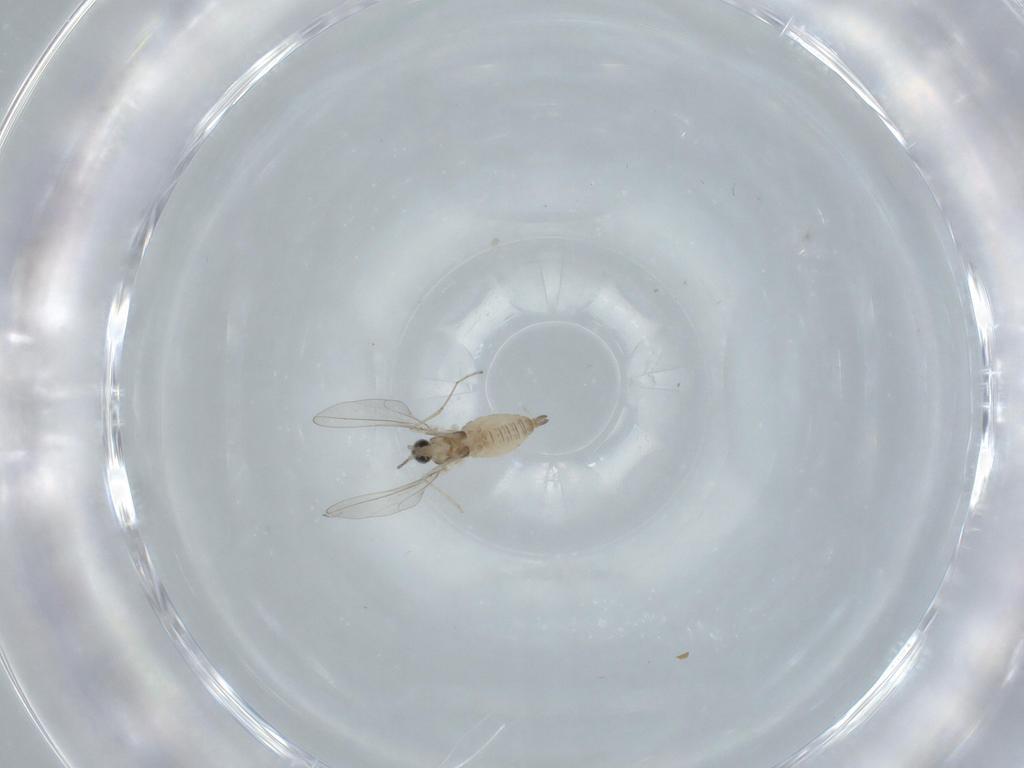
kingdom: Animalia
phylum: Arthropoda
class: Insecta
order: Diptera
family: Cecidomyiidae
